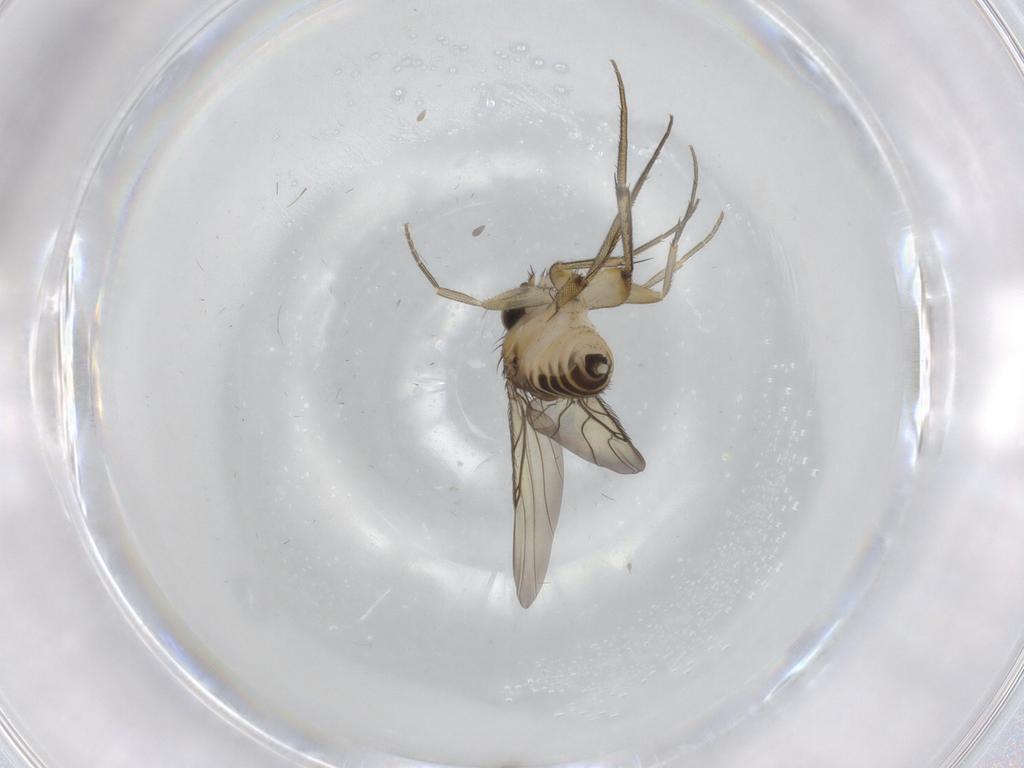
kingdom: Animalia
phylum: Arthropoda
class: Insecta
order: Diptera
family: Phoridae
